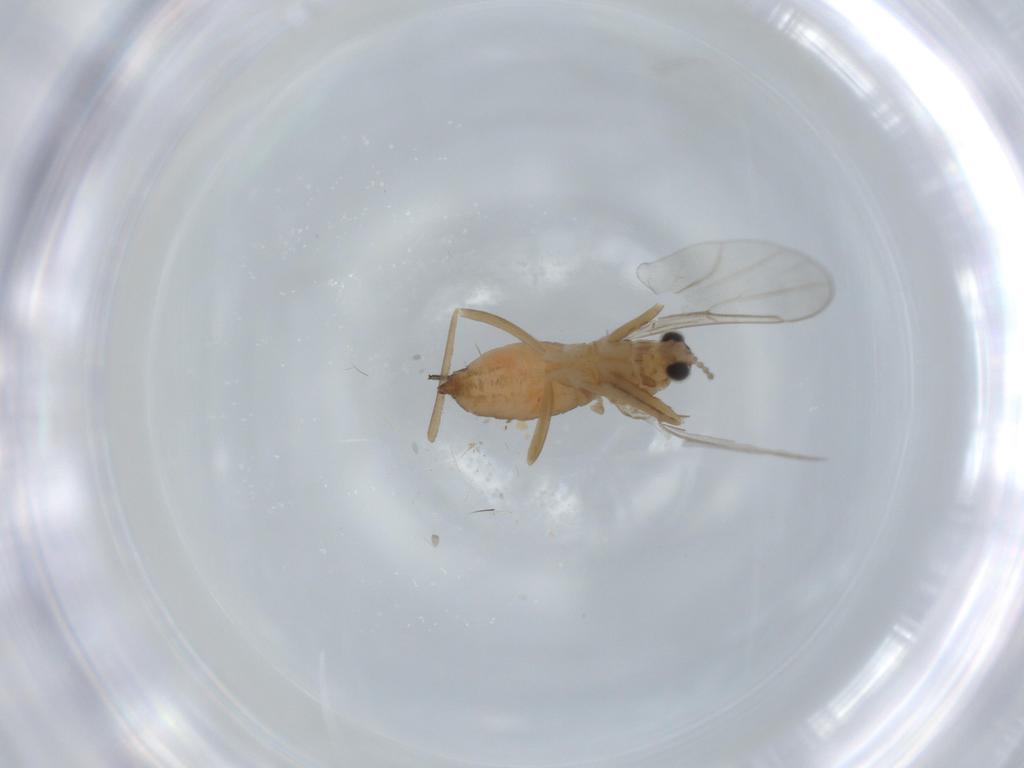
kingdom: Animalia
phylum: Arthropoda
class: Insecta
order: Diptera
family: Cecidomyiidae
